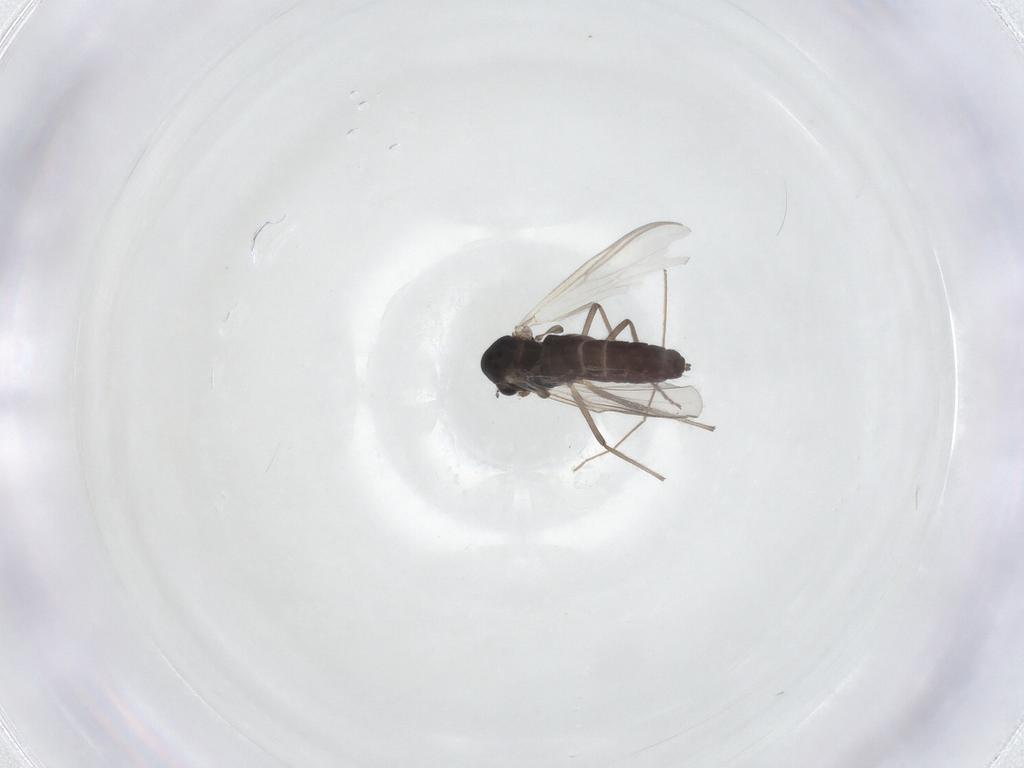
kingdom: Animalia
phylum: Arthropoda
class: Insecta
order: Diptera
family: Chironomidae
